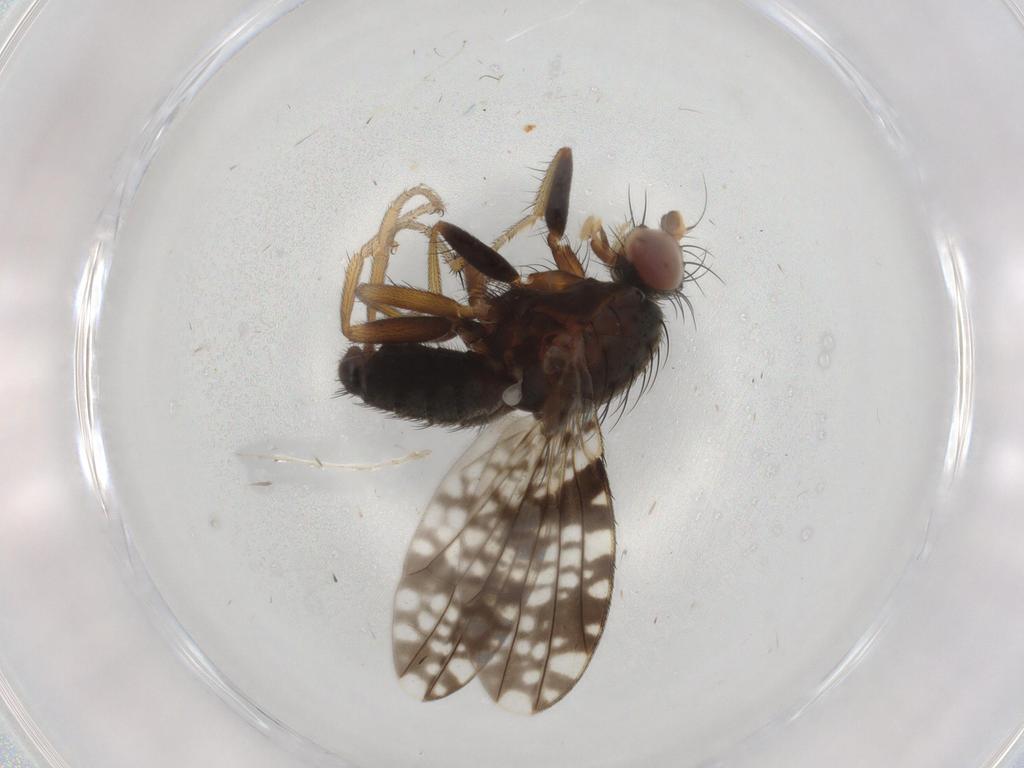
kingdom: Animalia
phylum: Arthropoda
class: Insecta
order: Diptera
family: Tephritidae
